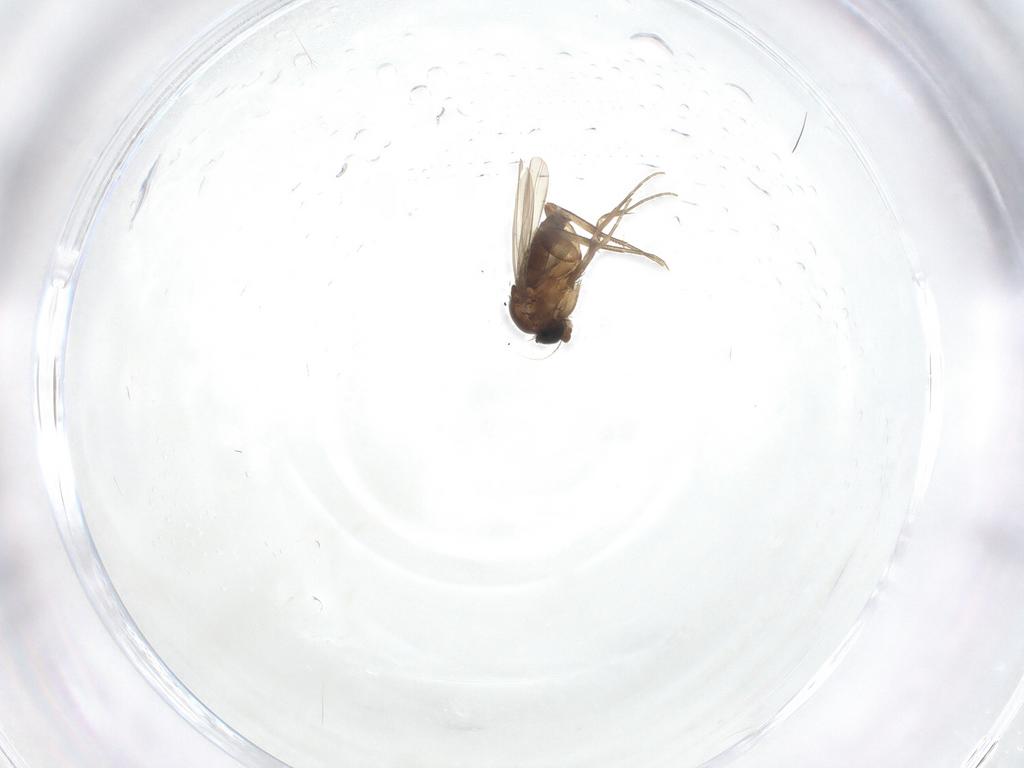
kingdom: Animalia
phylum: Arthropoda
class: Insecta
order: Diptera
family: Phoridae
